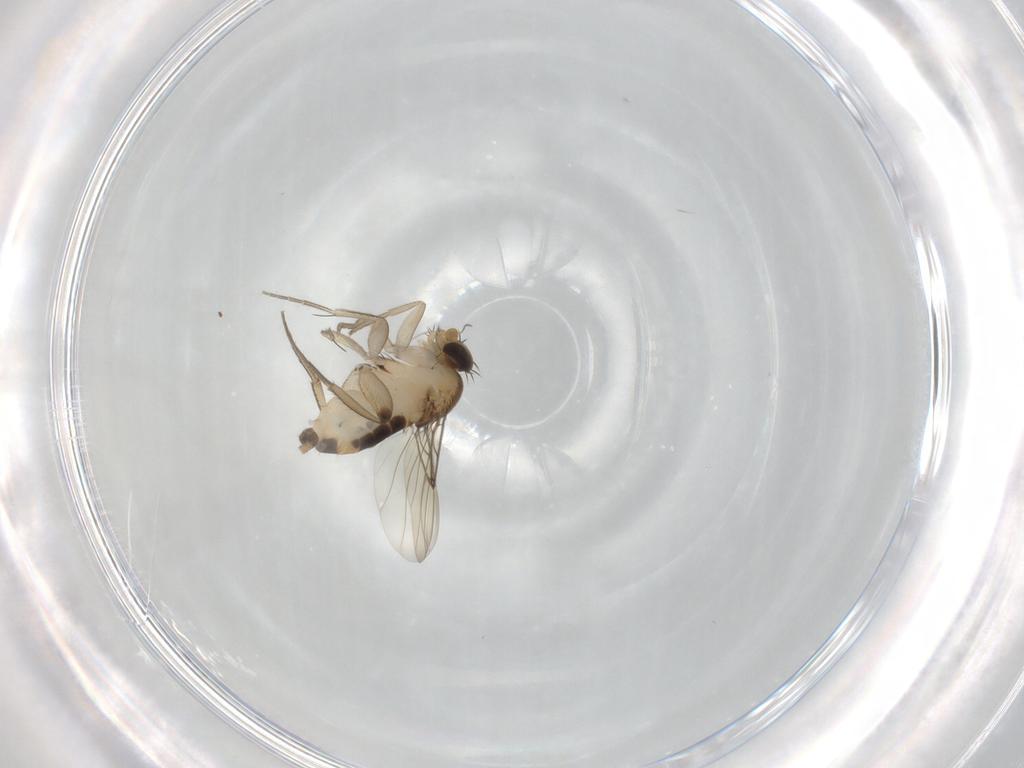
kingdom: Animalia
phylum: Arthropoda
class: Insecta
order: Diptera
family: Phoridae
